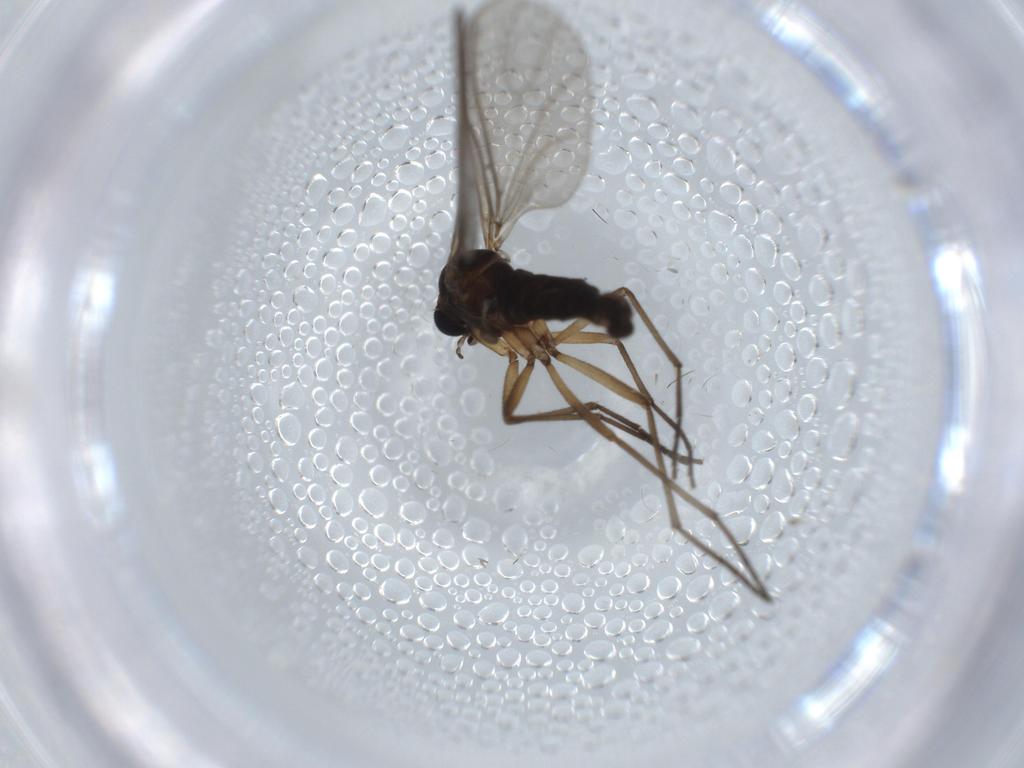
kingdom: Animalia
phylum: Arthropoda
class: Insecta
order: Diptera
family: Sciaridae
